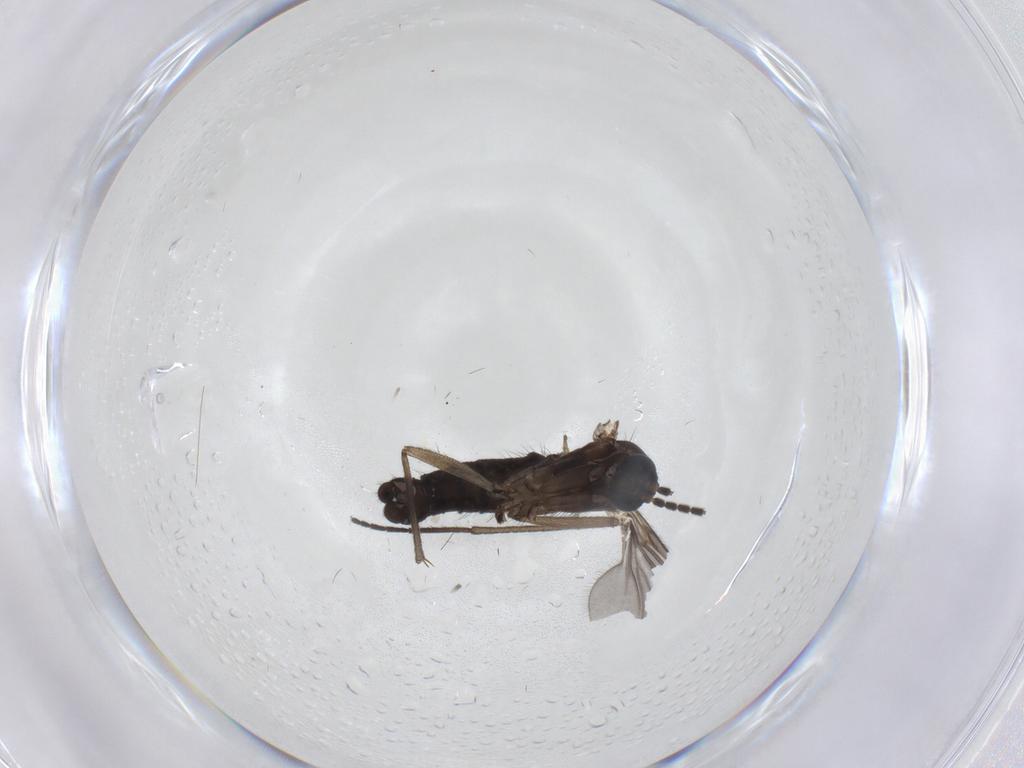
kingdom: Animalia
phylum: Arthropoda
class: Insecta
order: Diptera
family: Sciaridae
